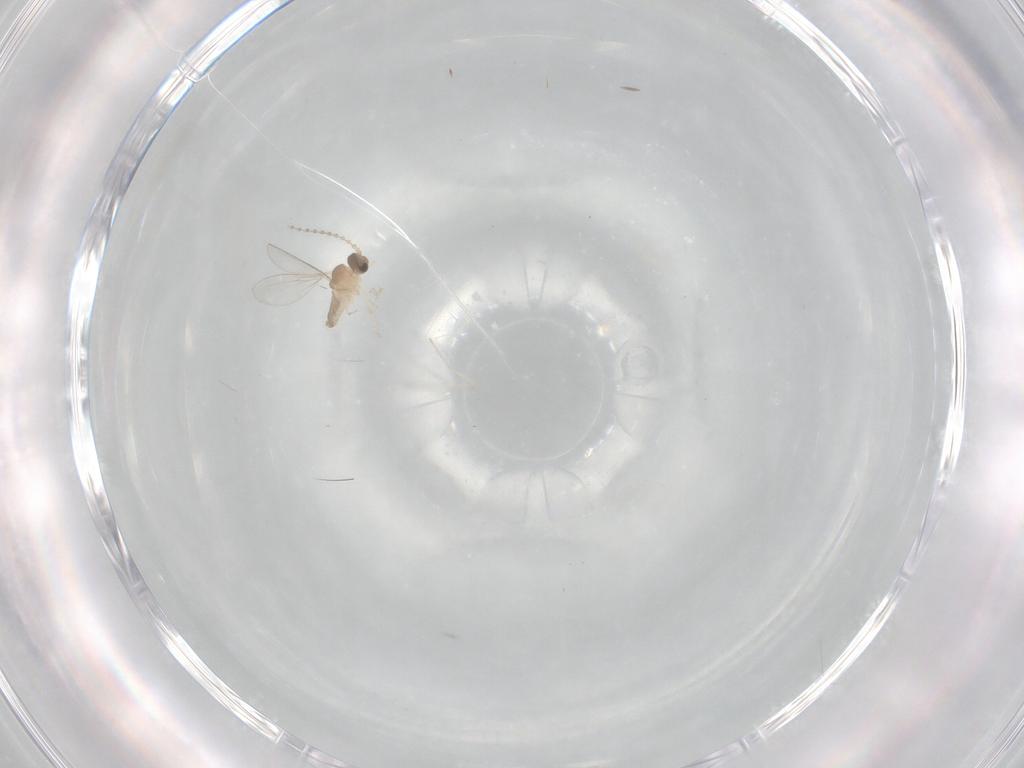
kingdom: Animalia
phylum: Arthropoda
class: Insecta
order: Diptera
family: Cecidomyiidae
